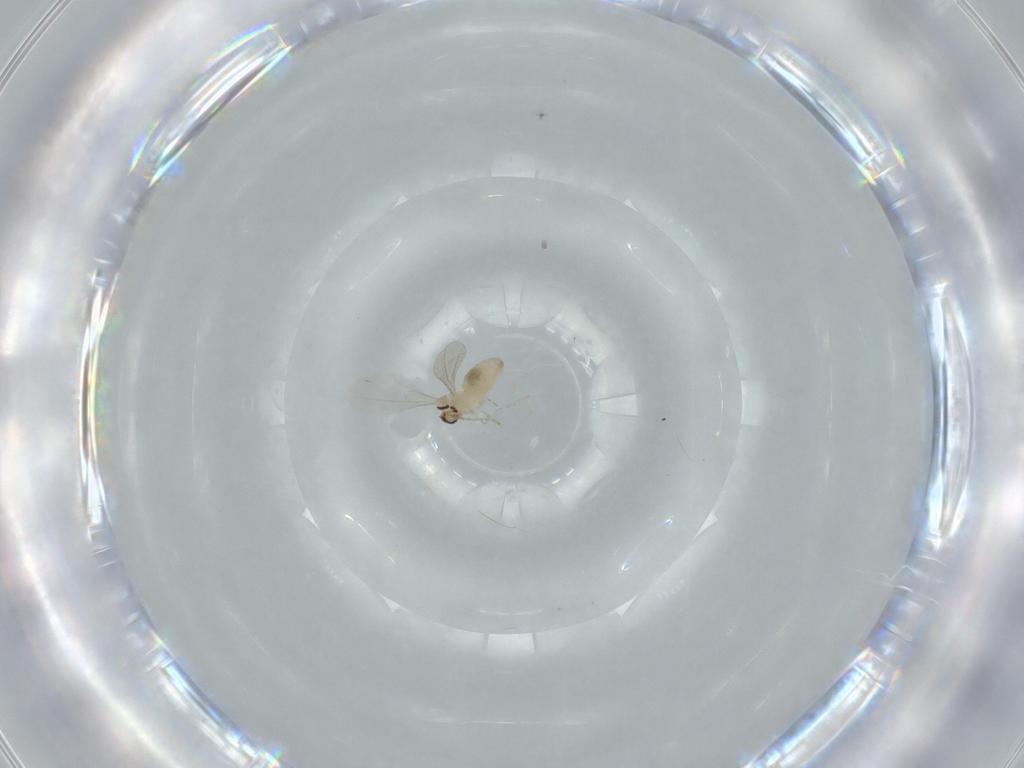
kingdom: Animalia
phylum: Arthropoda
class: Insecta
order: Diptera
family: Cecidomyiidae
